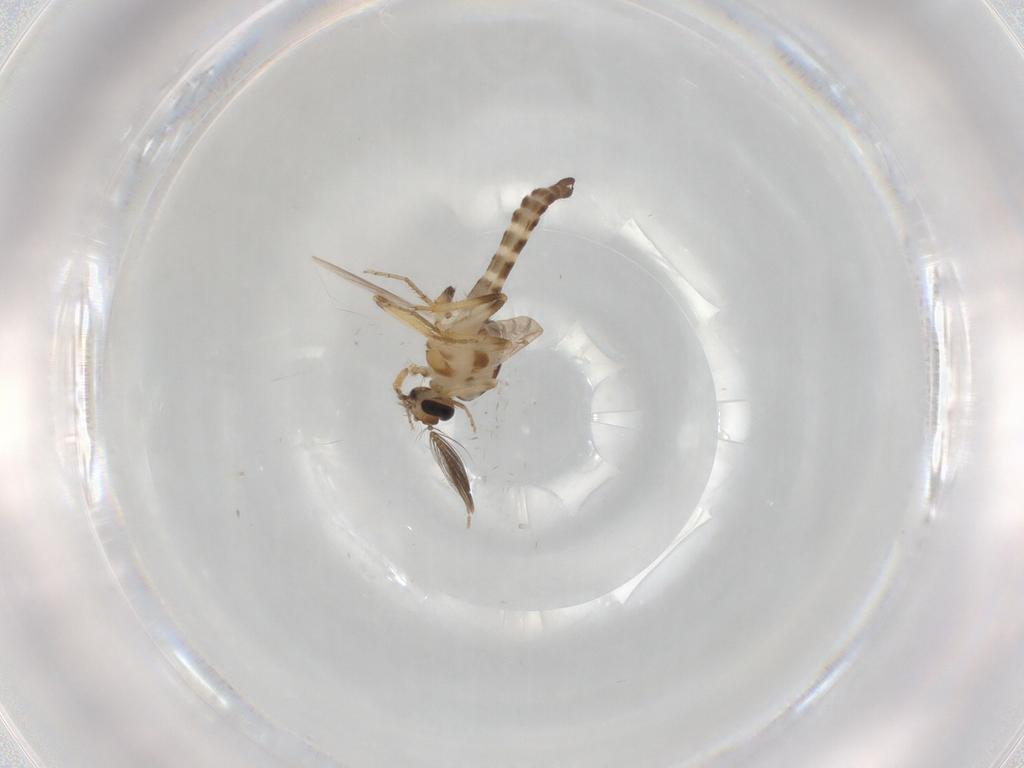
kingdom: Animalia
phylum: Arthropoda
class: Insecta
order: Diptera
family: Ceratopogonidae
